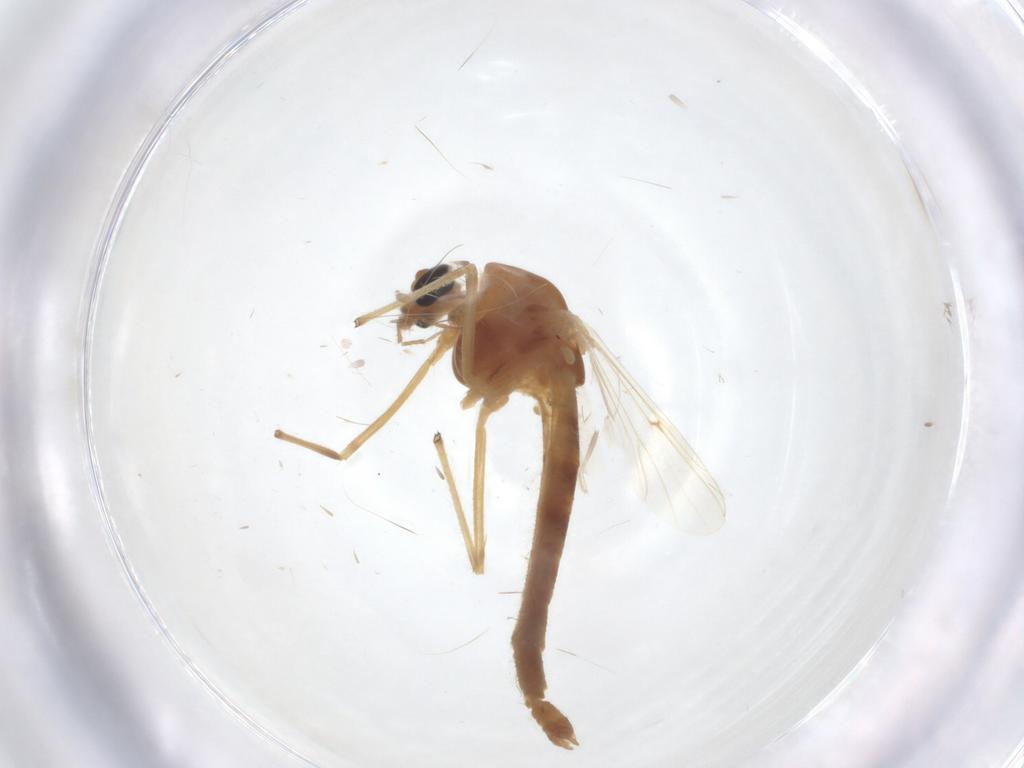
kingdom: Animalia
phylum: Arthropoda
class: Insecta
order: Diptera
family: Chironomidae
